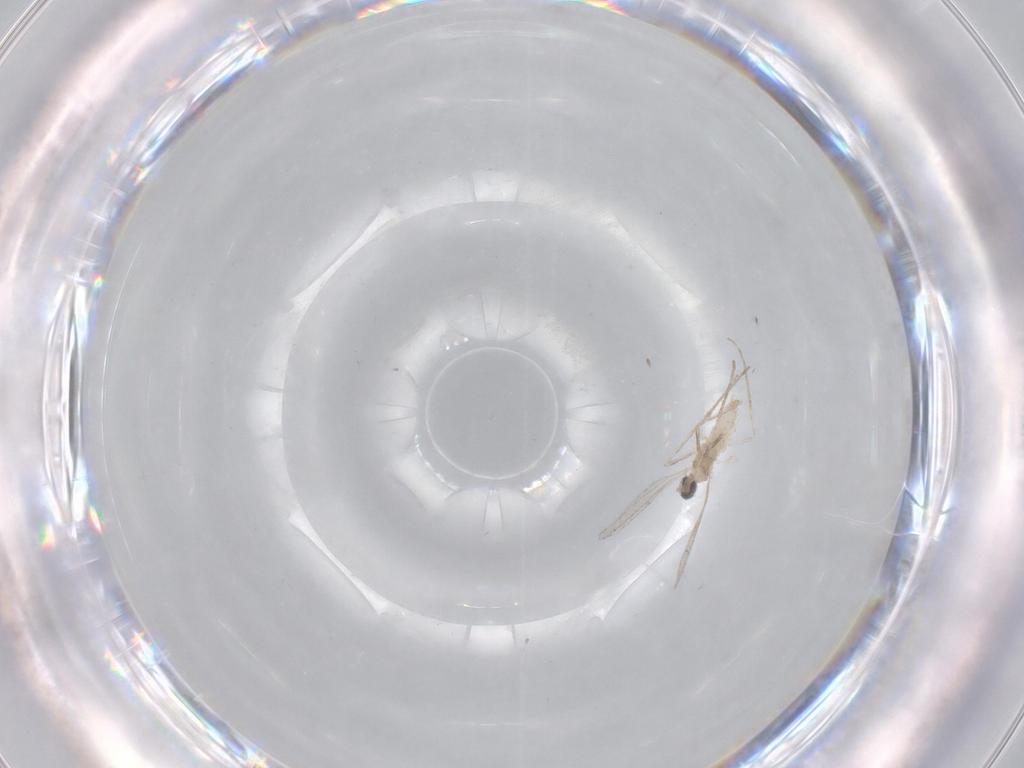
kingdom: Animalia
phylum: Arthropoda
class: Insecta
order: Diptera
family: Cecidomyiidae
